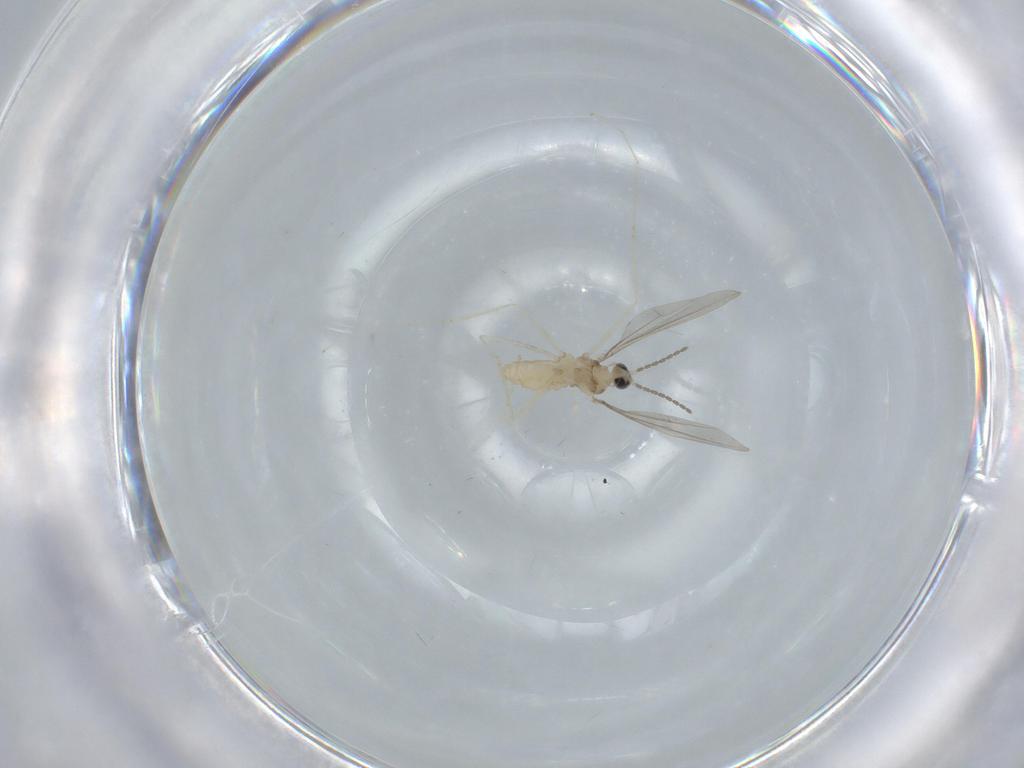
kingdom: Animalia
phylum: Arthropoda
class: Insecta
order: Diptera
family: Cecidomyiidae
